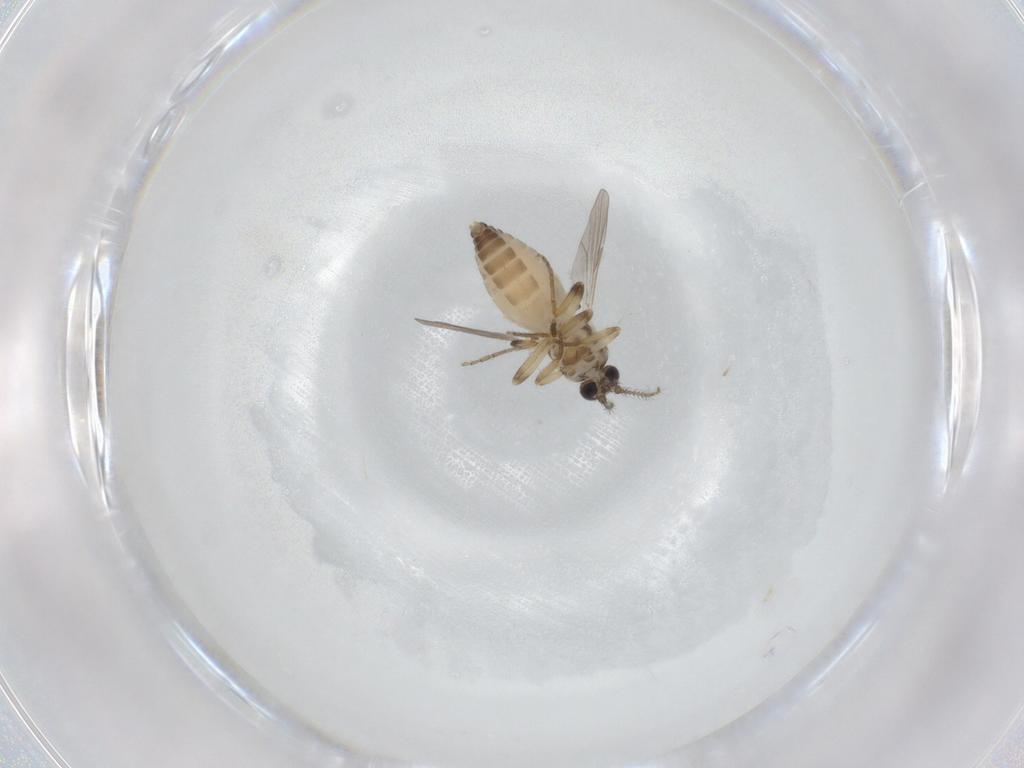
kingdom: Animalia
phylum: Arthropoda
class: Insecta
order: Diptera
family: Ceratopogonidae
